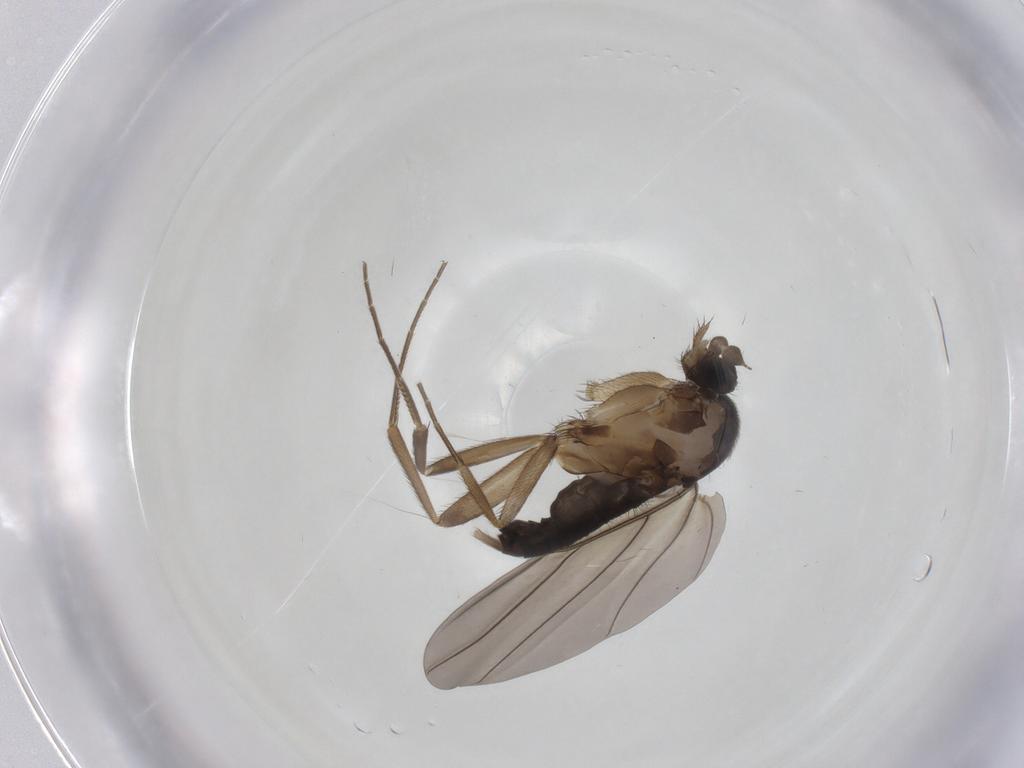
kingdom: Animalia
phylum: Arthropoda
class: Insecta
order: Diptera
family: Phoridae
